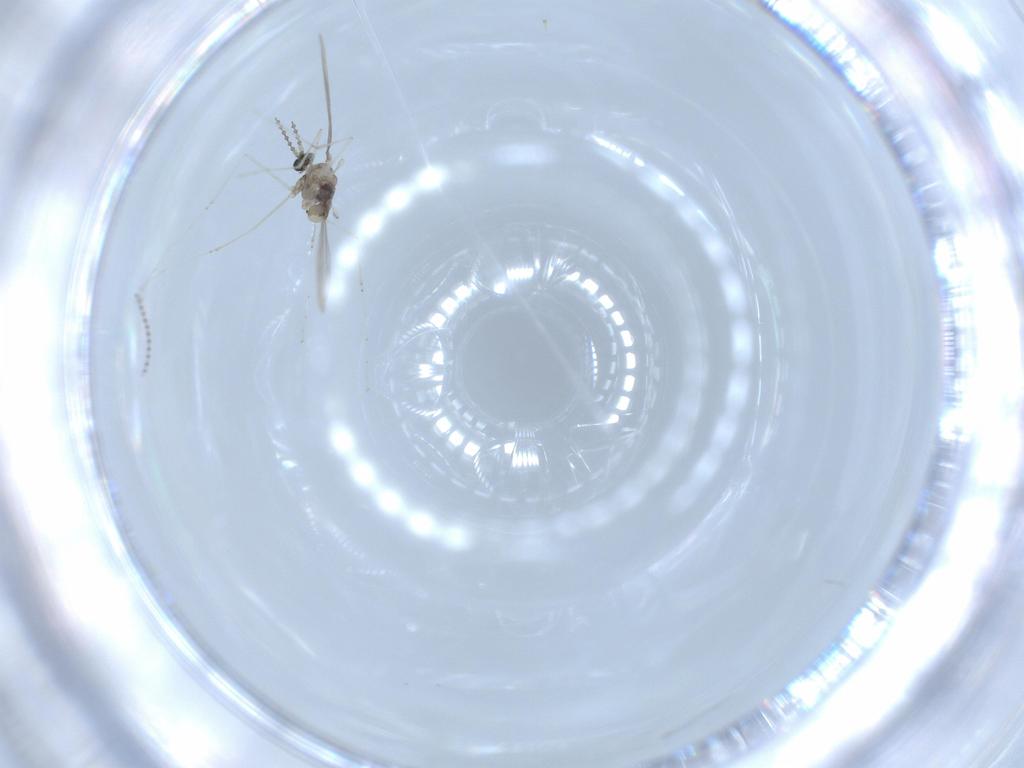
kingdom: Animalia
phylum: Arthropoda
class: Insecta
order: Diptera
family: Cecidomyiidae
